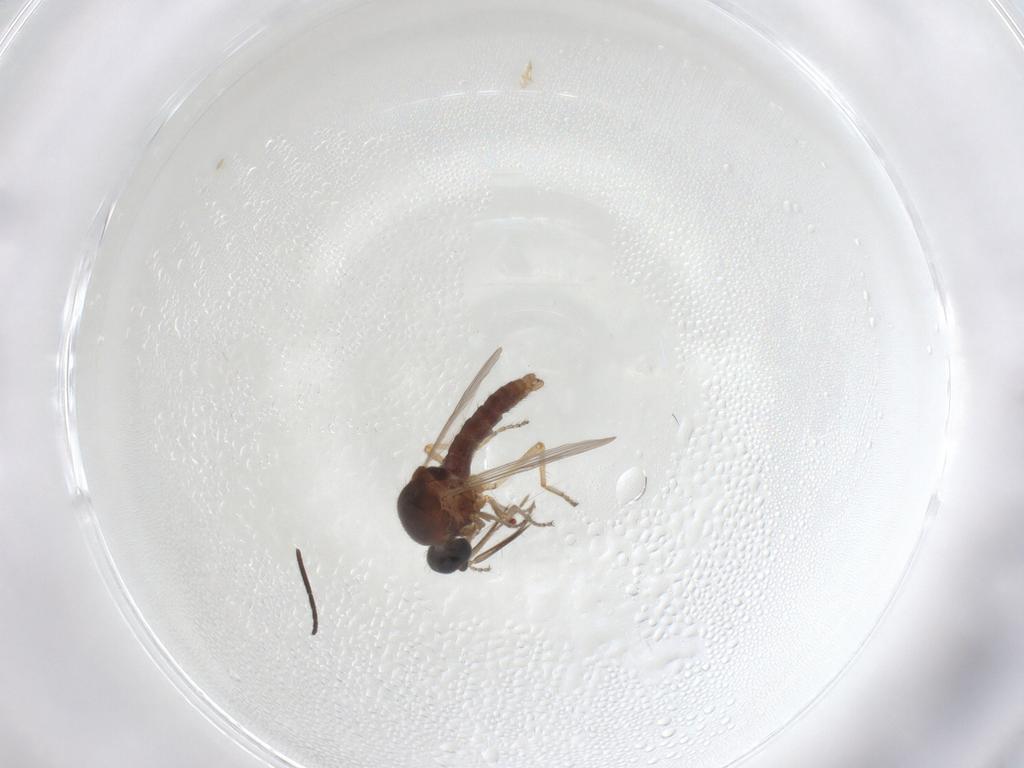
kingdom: Animalia
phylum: Arthropoda
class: Insecta
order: Diptera
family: Ceratopogonidae
